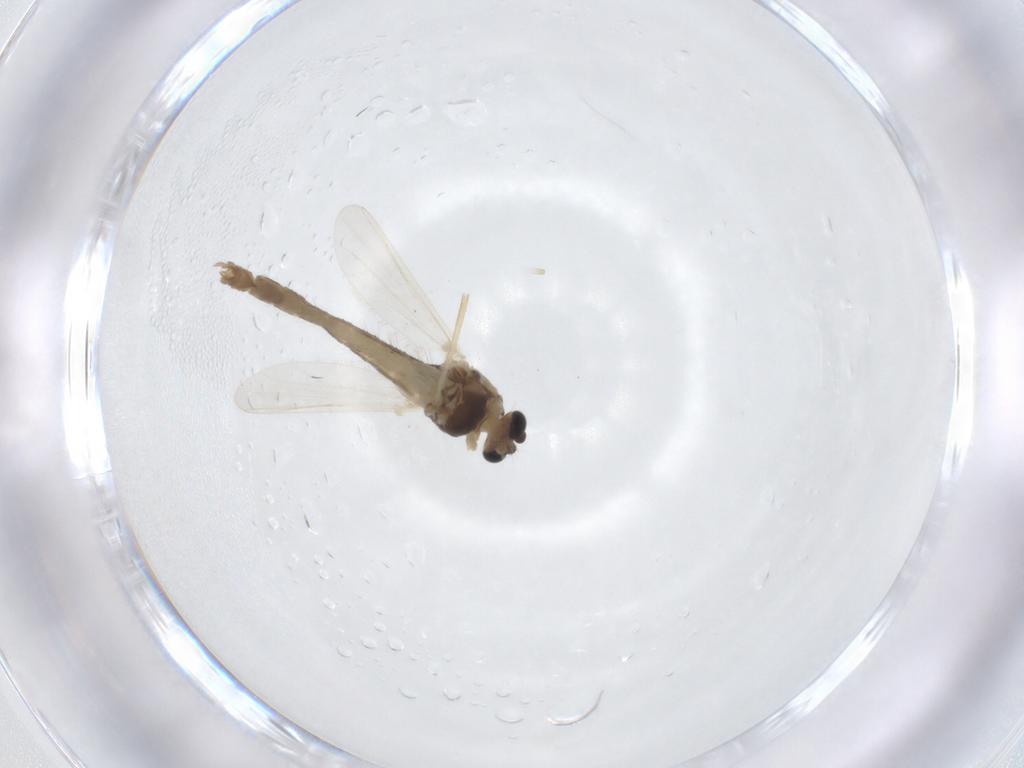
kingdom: Animalia
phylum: Arthropoda
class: Insecta
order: Diptera
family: Chironomidae
